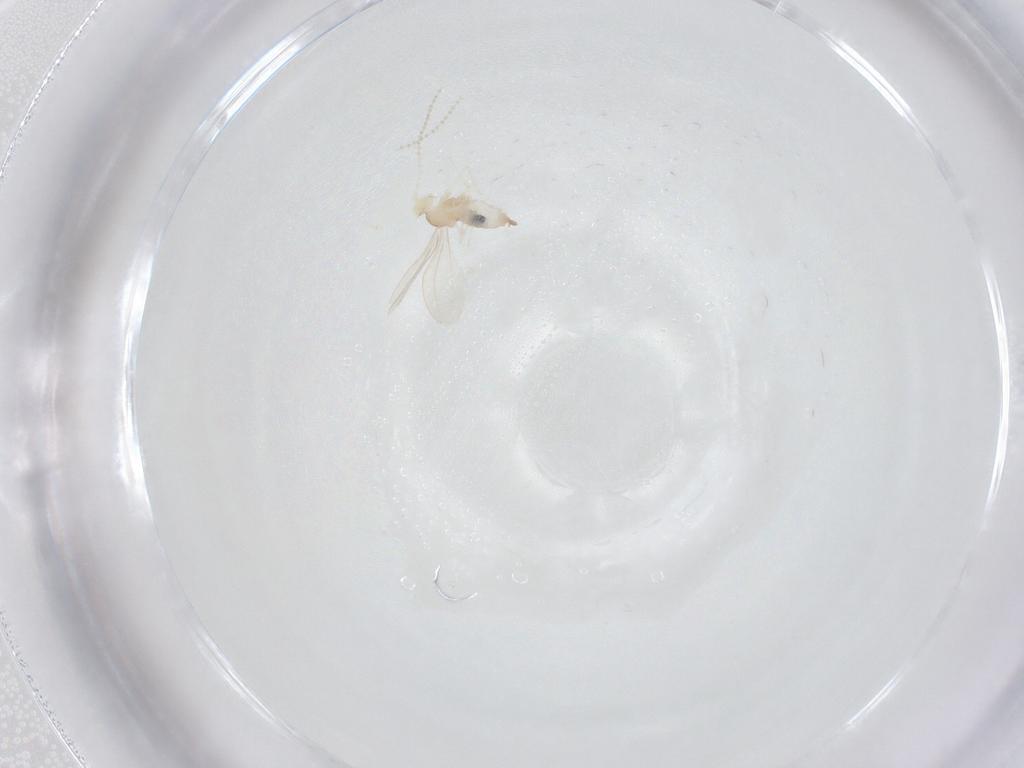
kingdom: Animalia
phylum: Arthropoda
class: Insecta
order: Diptera
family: Cecidomyiidae
